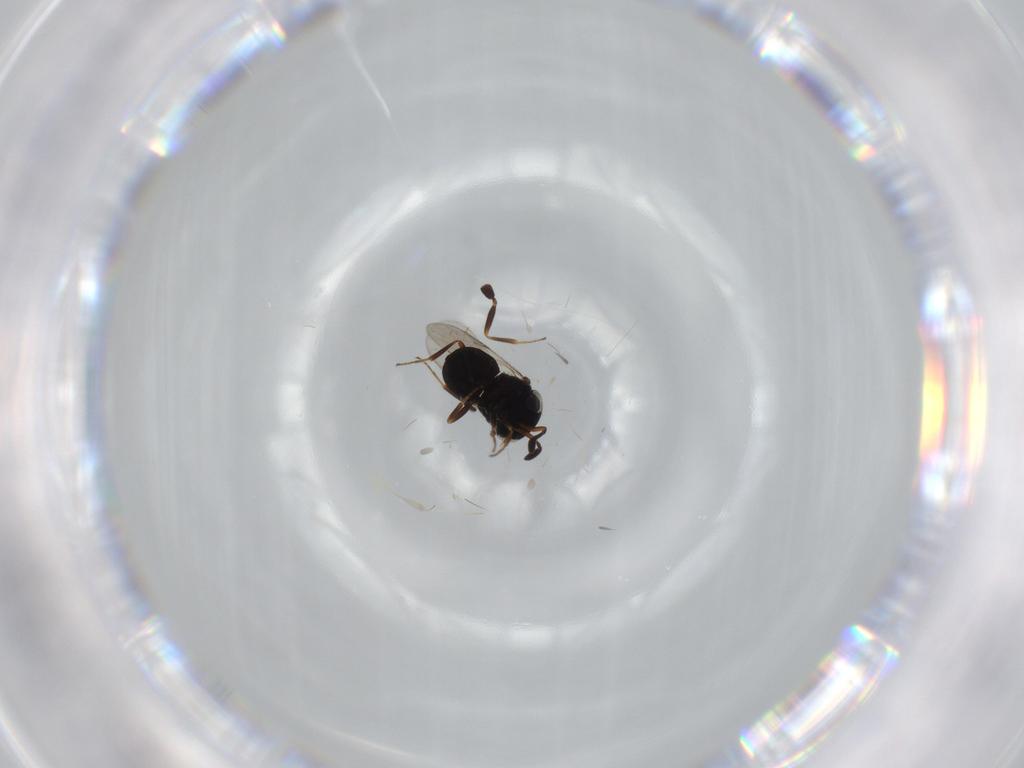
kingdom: Animalia
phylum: Arthropoda
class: Insecta
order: Hymenoptera
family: Scelionidae
